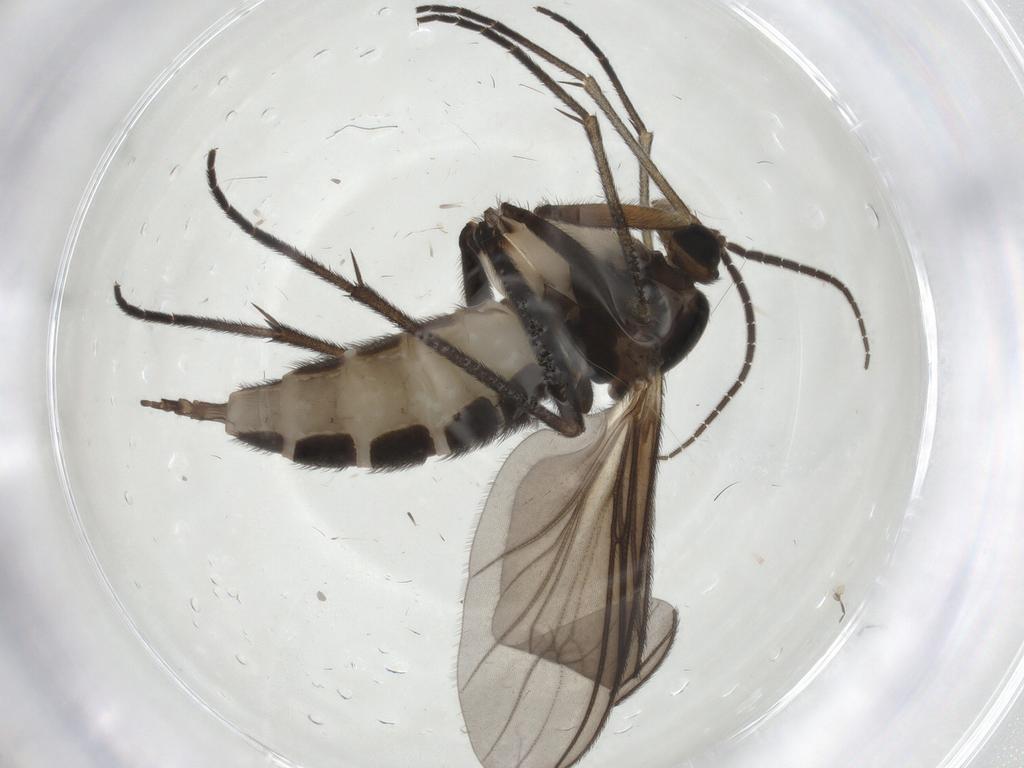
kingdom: Animalia
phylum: Arthropoda
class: Insecta
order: Diptera
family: Sciaridae
